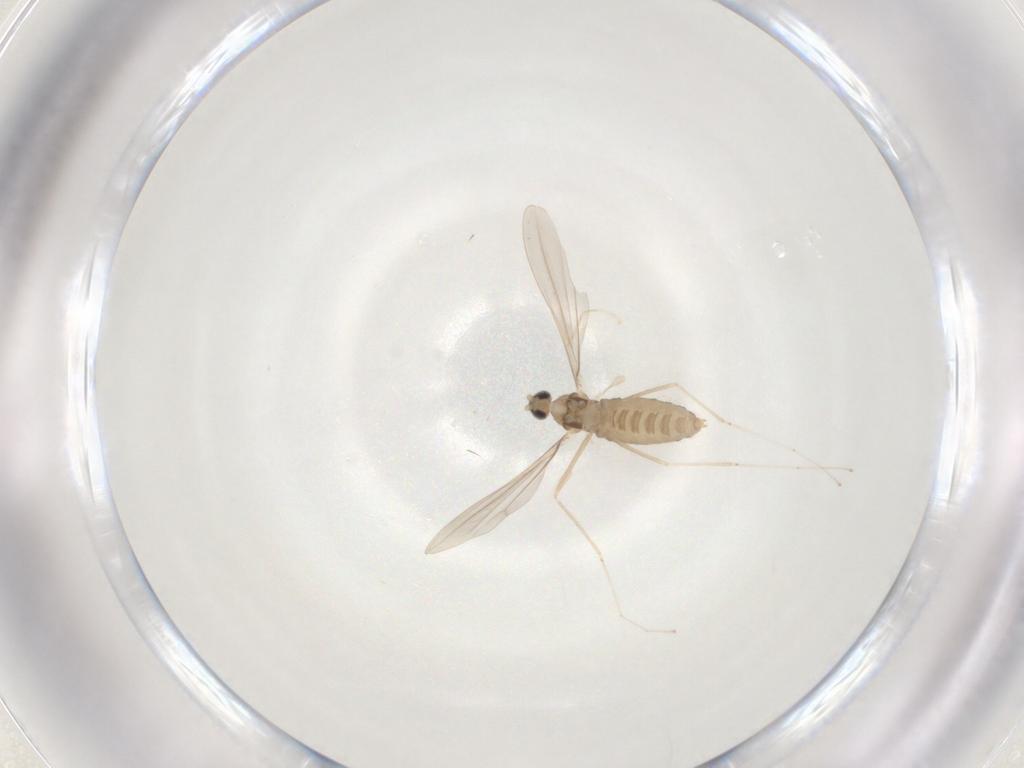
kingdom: Animalia
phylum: Arthropoda
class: Insecta
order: Diptera
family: Cecidomyiidae
